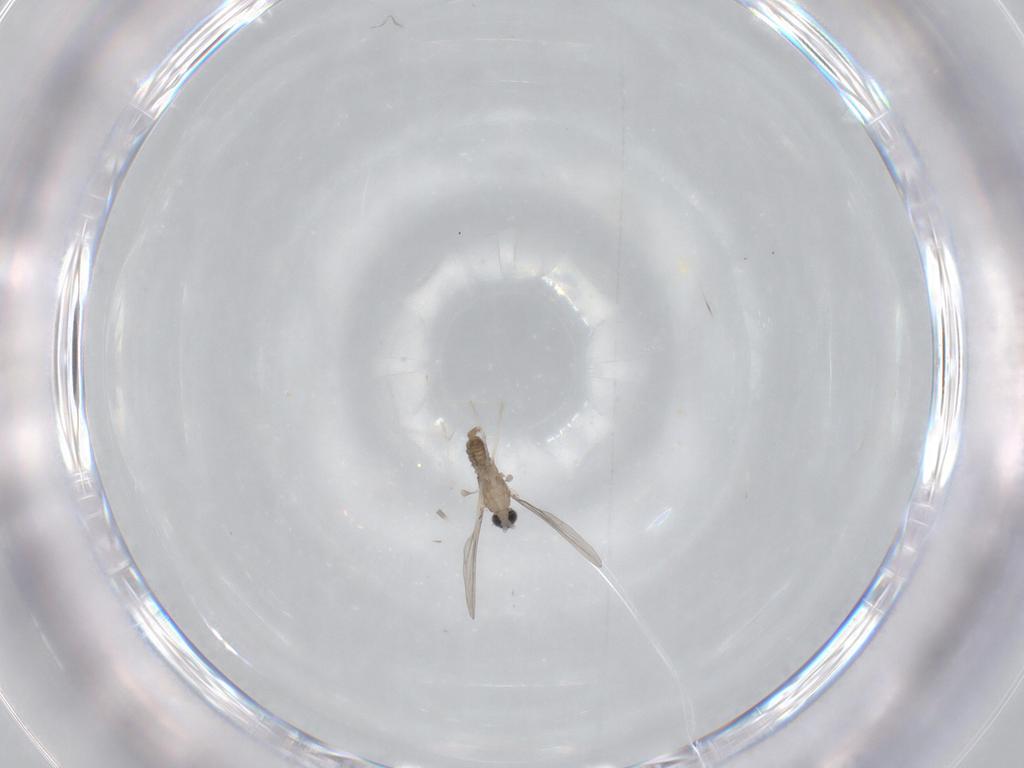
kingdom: Animalia
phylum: Arthropoda
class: Insecta
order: Diptera
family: Cecidomyiidae
